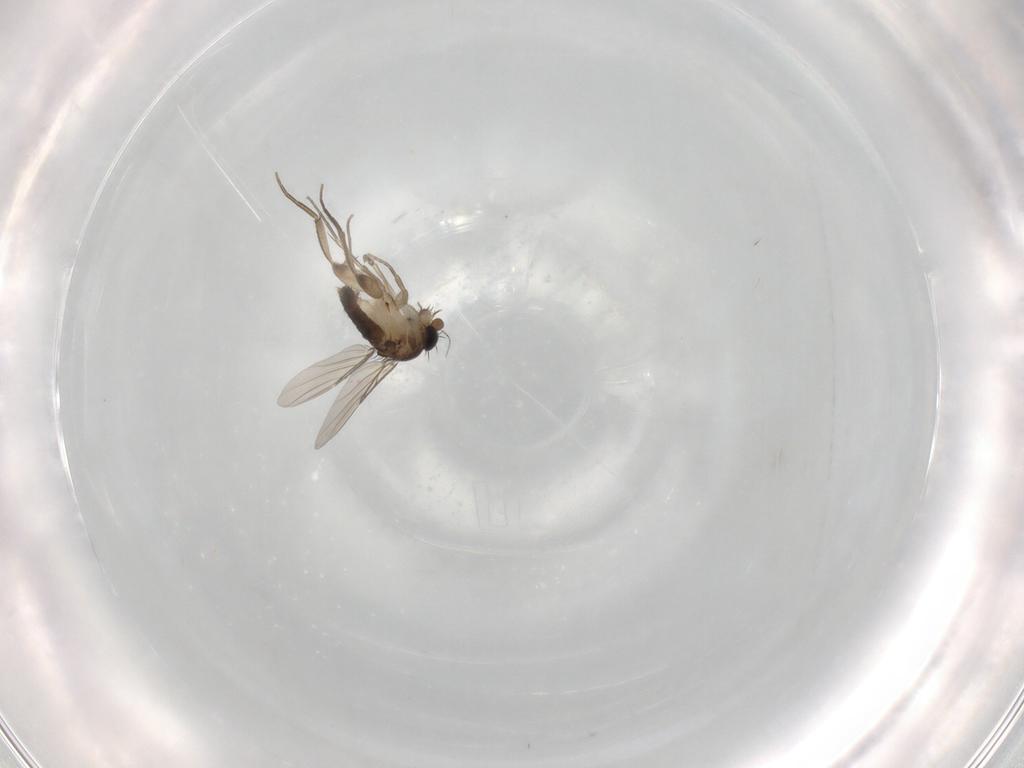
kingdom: Animalia
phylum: Arthropoda
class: Insecta
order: Diptera
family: Phoridae
